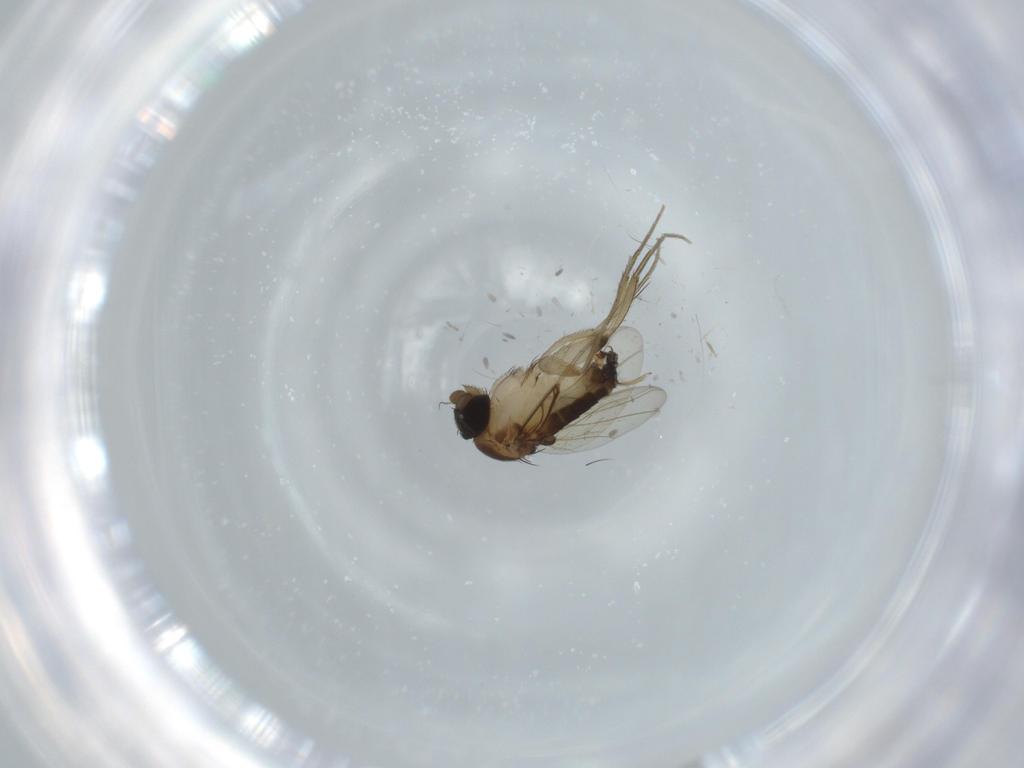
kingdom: Animalia
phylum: Arthropoda
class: Insecta
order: Diptera
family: Phoridae
